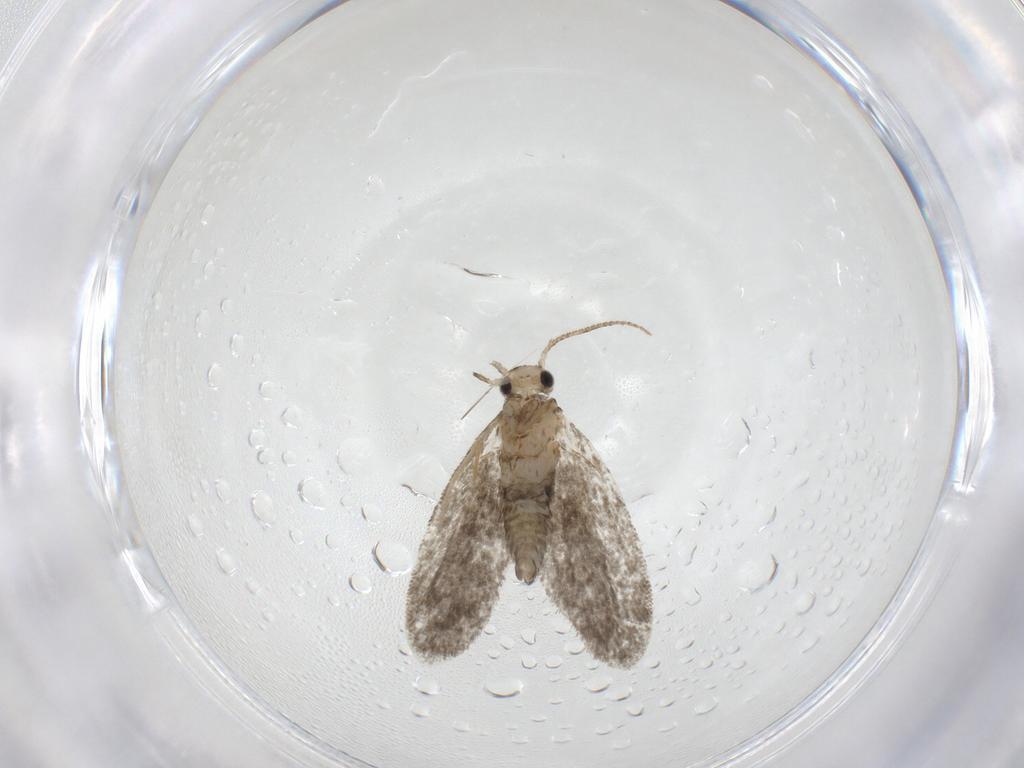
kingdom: Animalia
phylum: Arthropoda
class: Insecta
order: Lepidoptera
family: Psychidae
